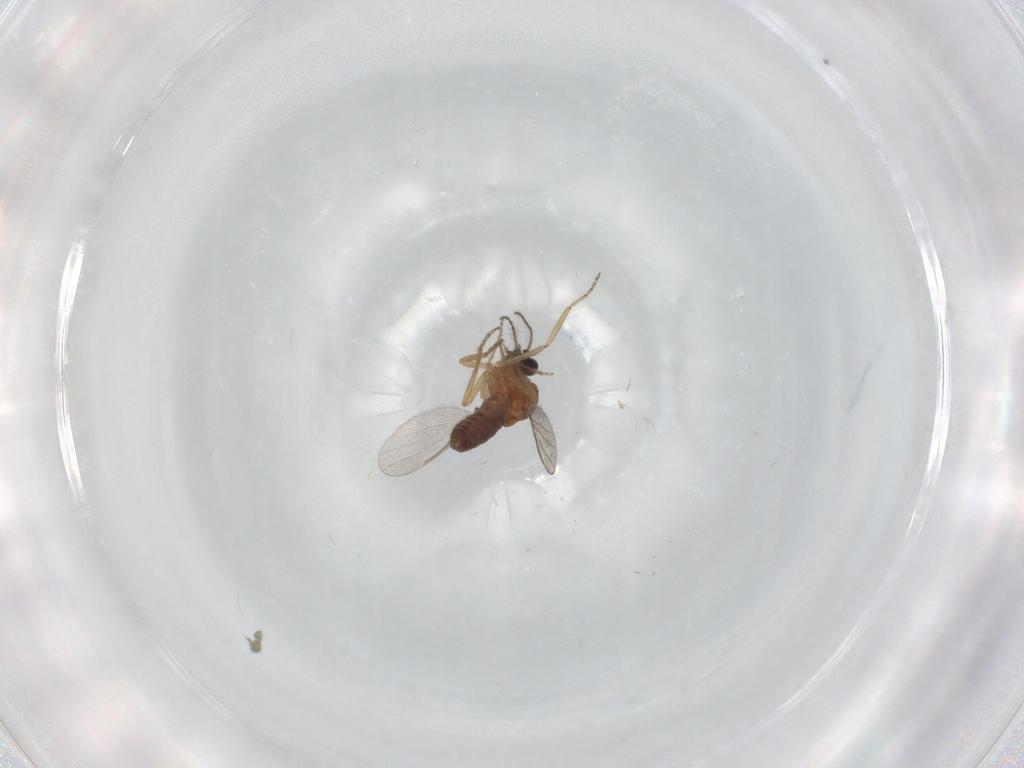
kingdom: Animalia
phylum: Arthropoda
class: Insecta
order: Diptera
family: Ceratopogonidae
